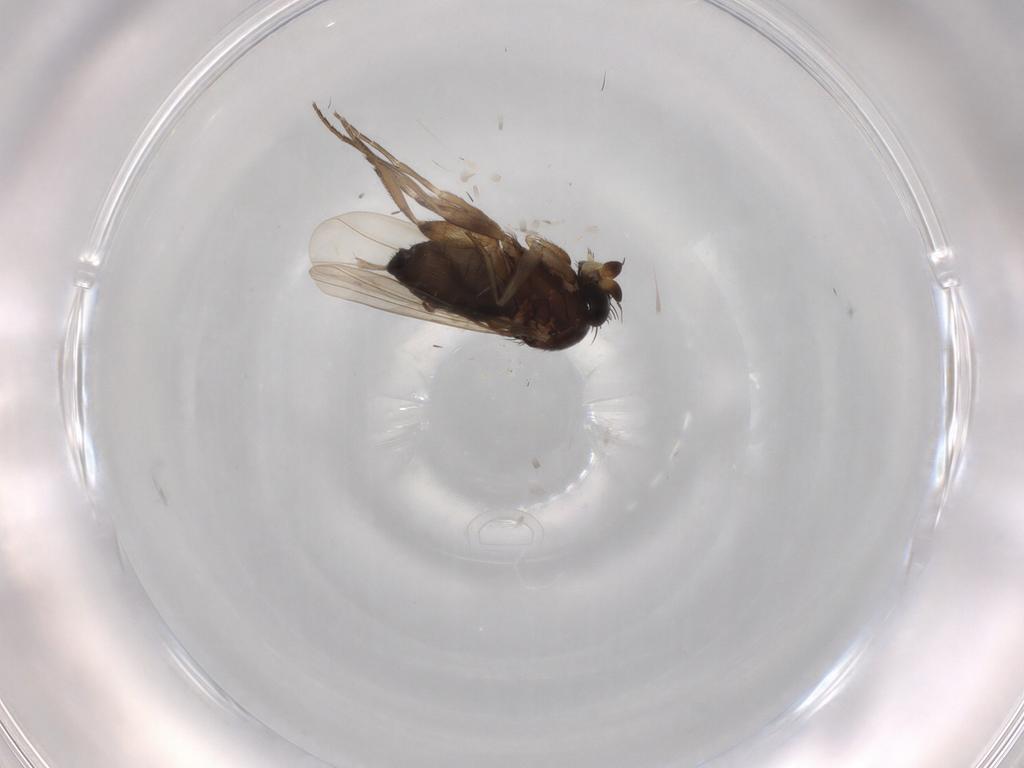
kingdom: Animalia
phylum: Arthropoda
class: Insecta
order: Diptera
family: Phoridae
